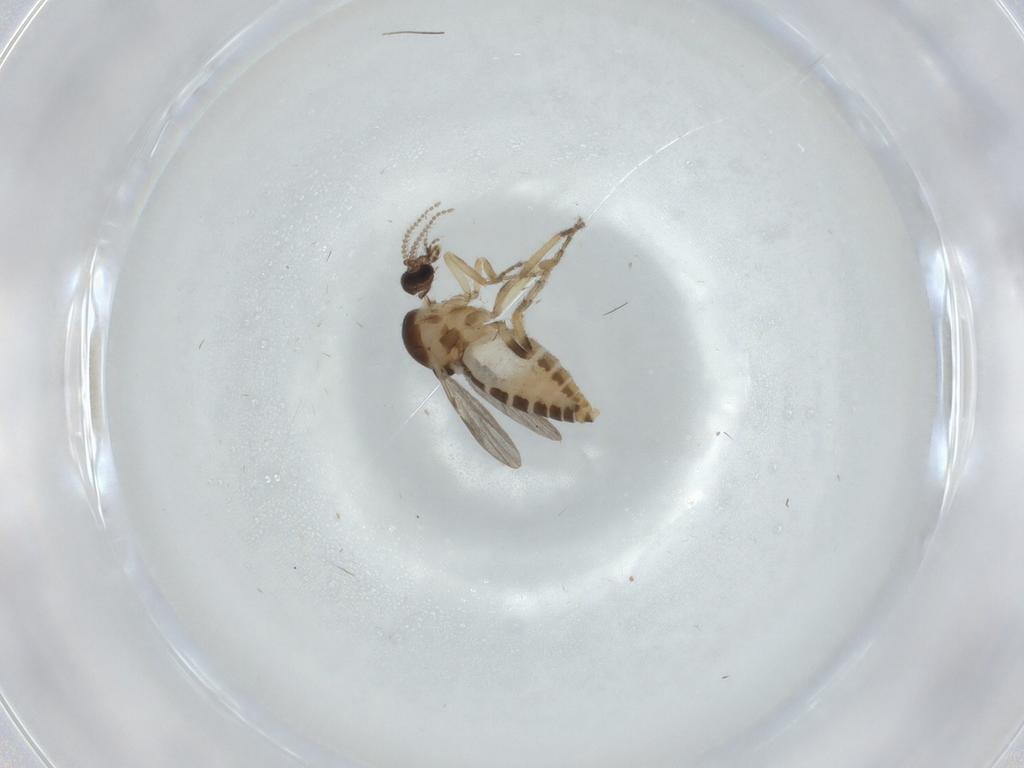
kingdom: Animalia
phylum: Arthropoda
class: Insecta
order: Diptera
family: Ceratopogonidae
